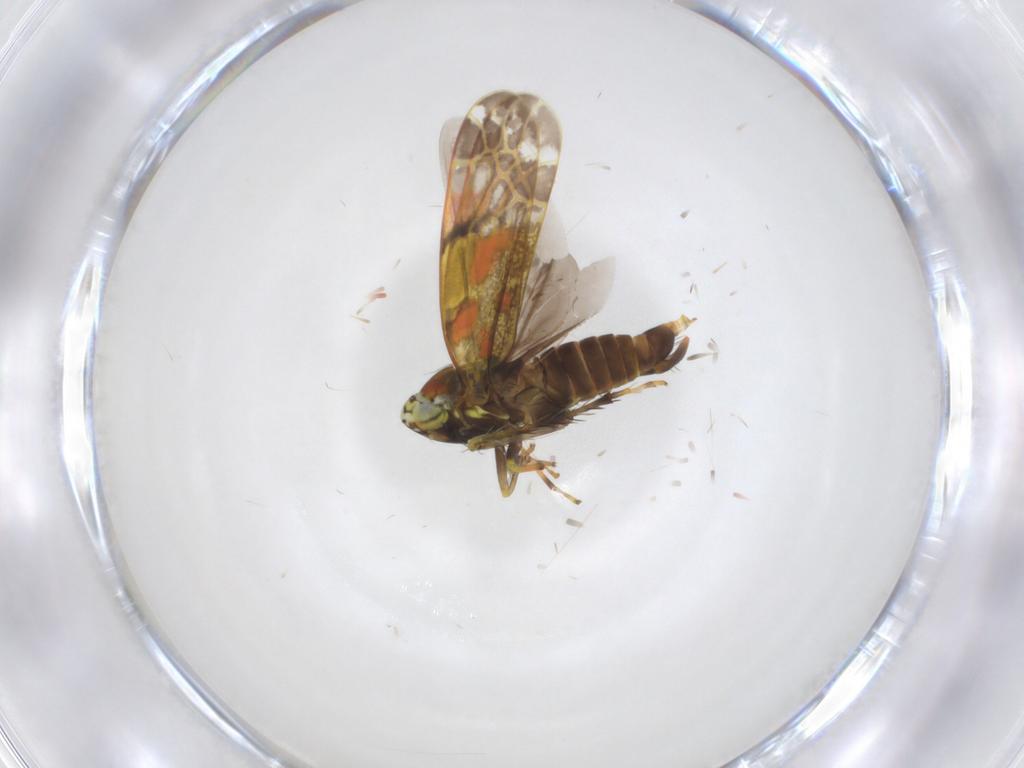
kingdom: Animalia
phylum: Arthropoda
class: Insecta
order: Hemiptera
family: Cicadellidae
